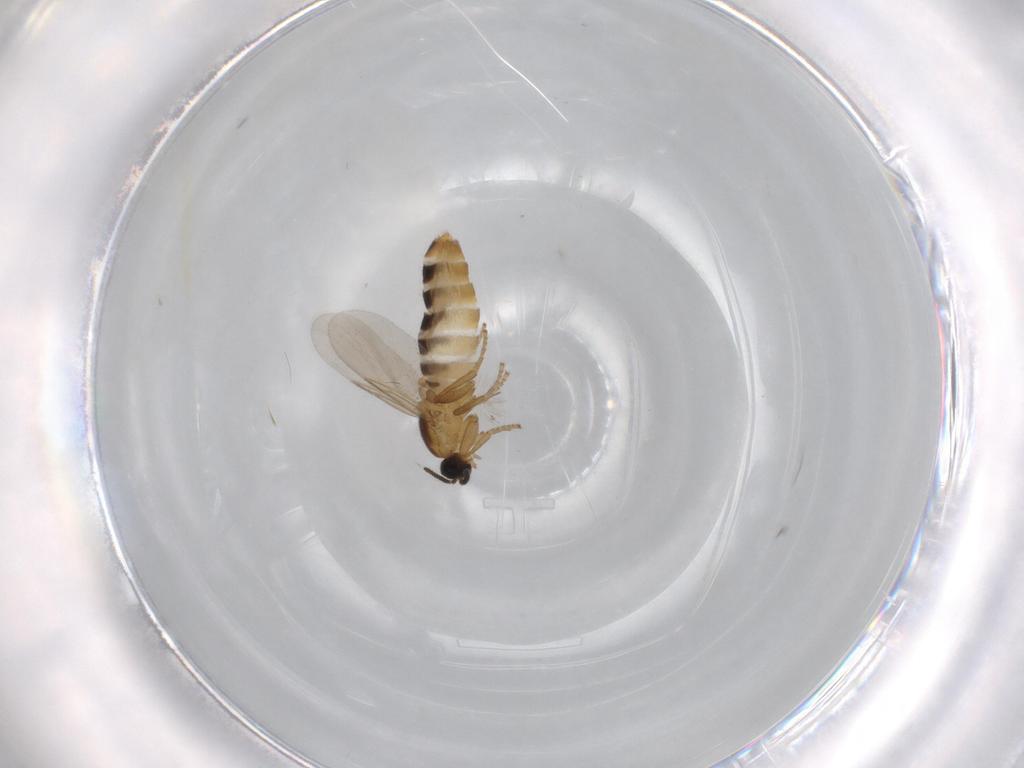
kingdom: Animalia
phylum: Arthropoda
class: Insecta
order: Diptera
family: Scatopsidae
